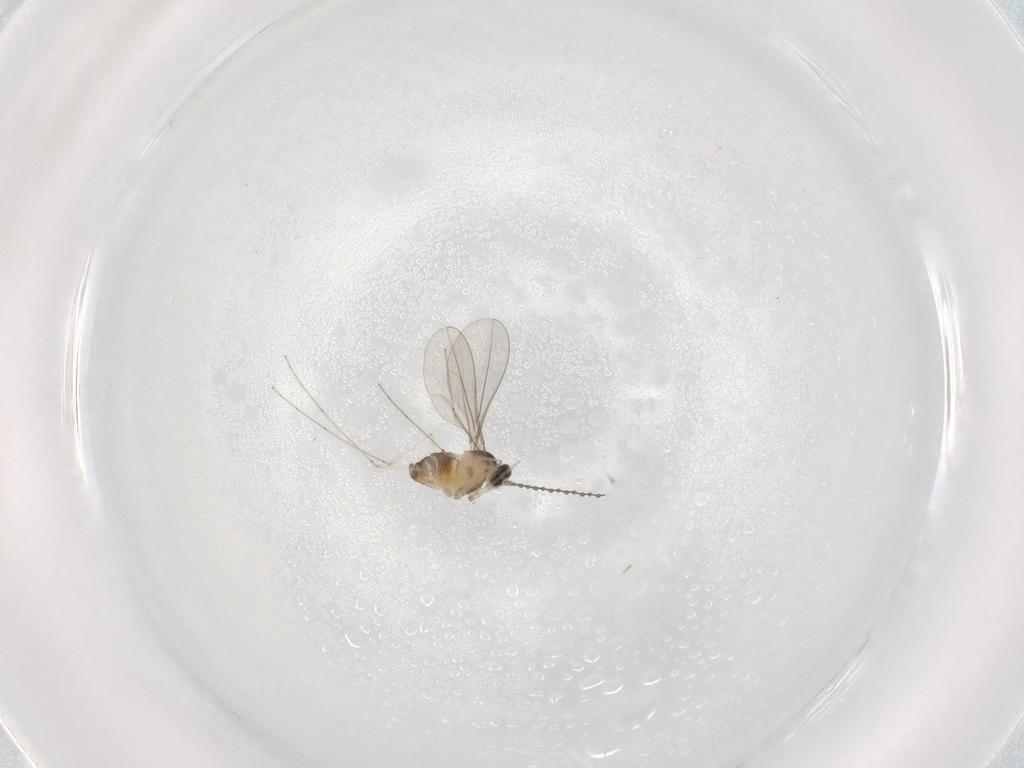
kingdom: Animalia
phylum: Arthropoda
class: Insecta
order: Diptera
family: Cecidomyiidae
